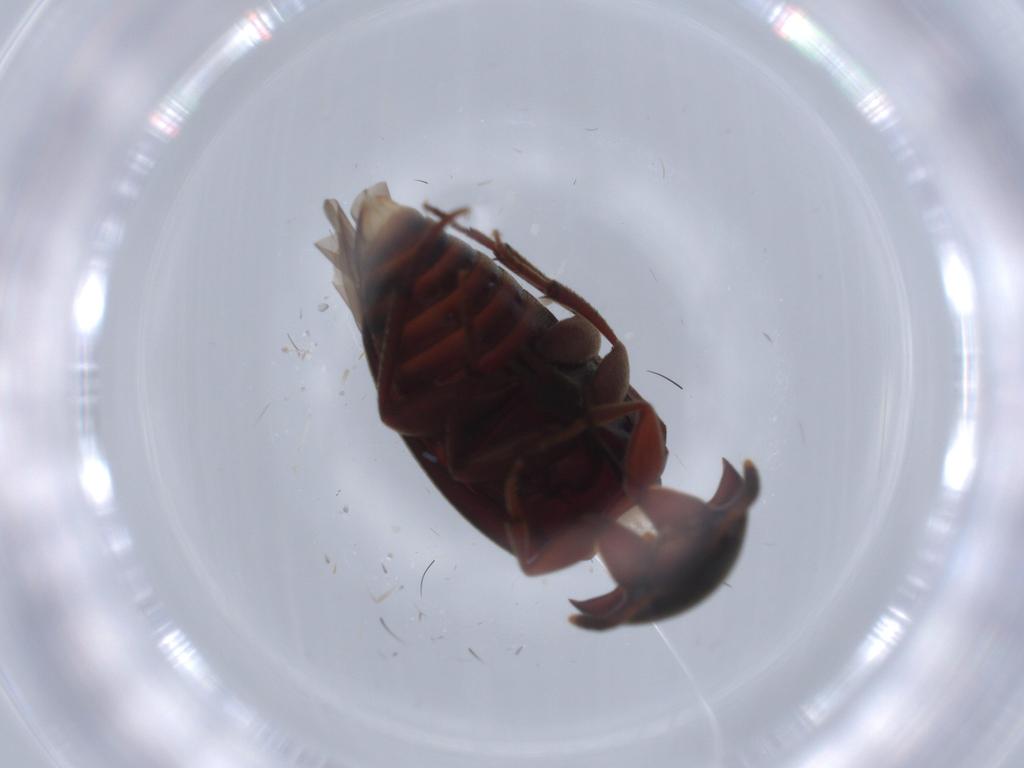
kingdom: Animalia
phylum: Arthropoda
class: Insecta
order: Coleoptera
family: Leiodidae
